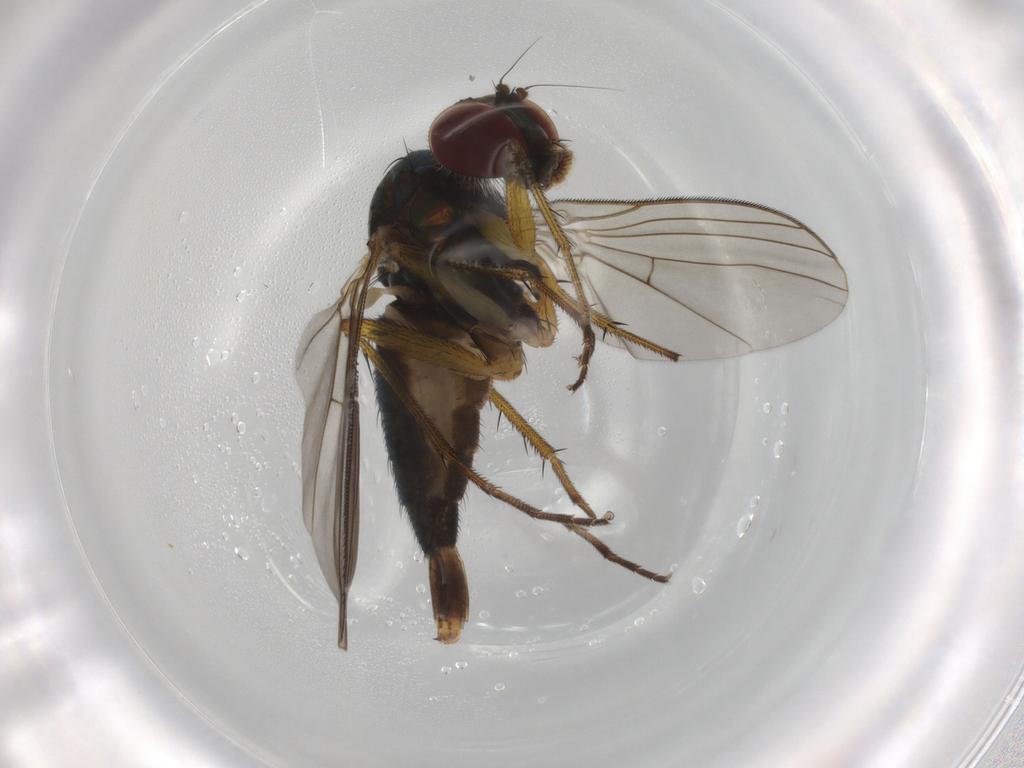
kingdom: Animalia
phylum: Arthropoda
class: Insecta
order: Diptera
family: Dolichopodidae
